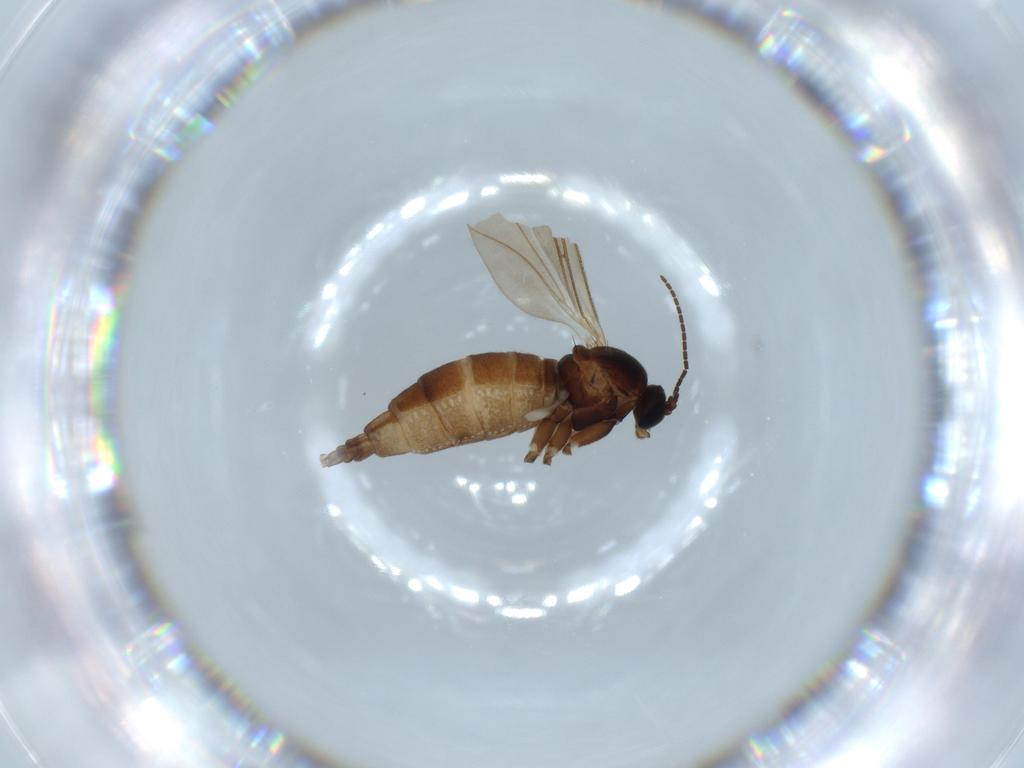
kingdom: Animalia
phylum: Arthropoda
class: Insecta
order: Diptera
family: Sciaridae
